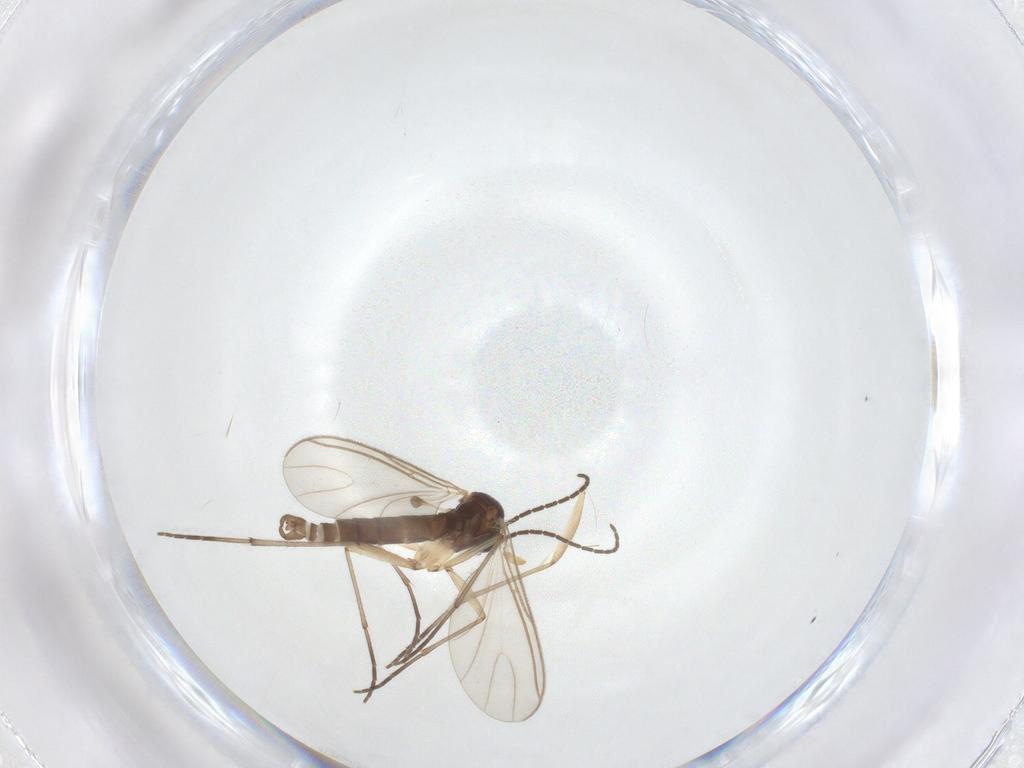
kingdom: Animalia
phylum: Arthropoda
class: Insecta
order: Diptera
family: Sciaridae
